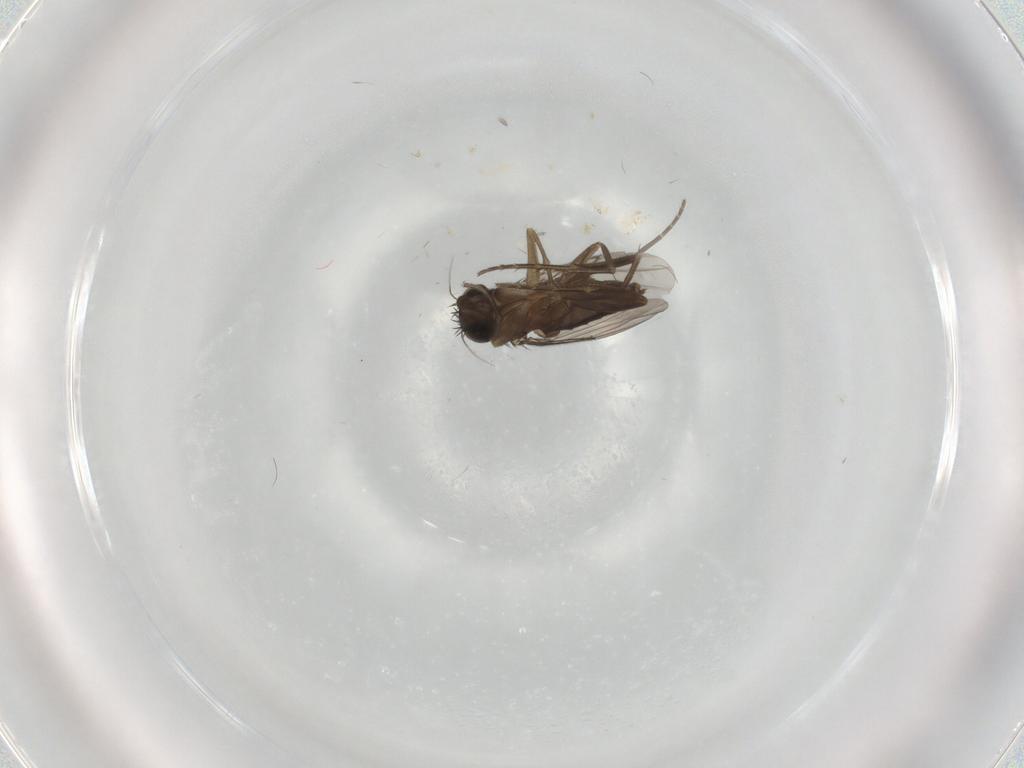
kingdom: Animalia
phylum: Arthropoda
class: Insecta
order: Diptera
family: Phoridae
